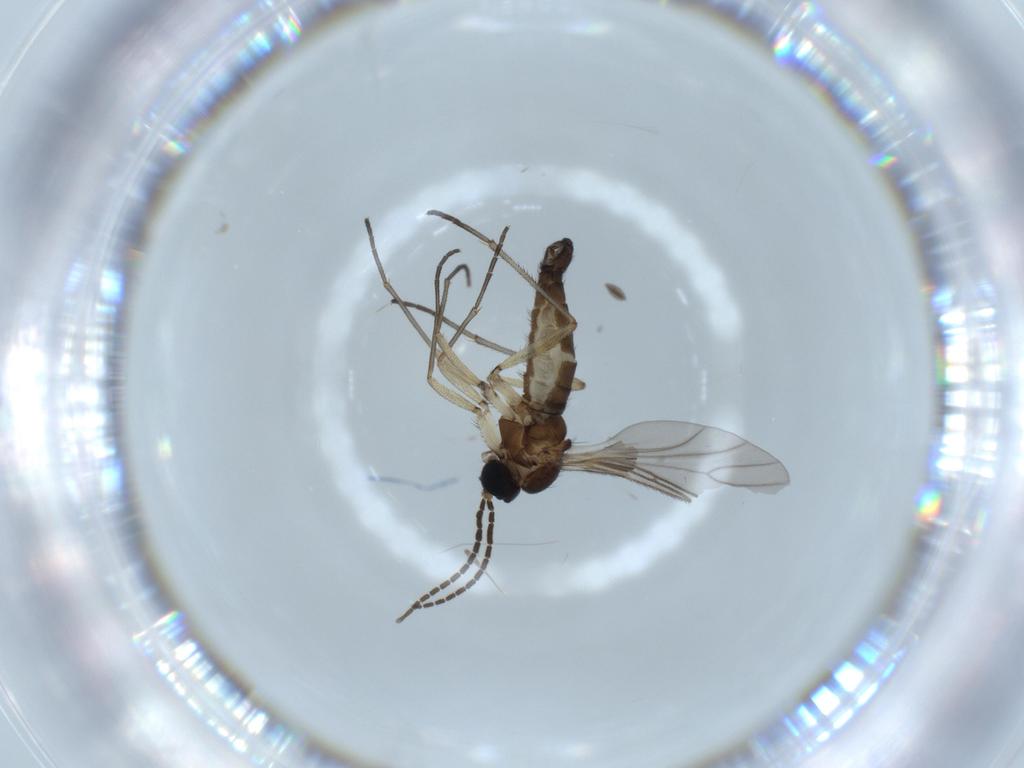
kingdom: Animalia
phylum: Arthropoda
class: Insecta
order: Diptera
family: Sciaridae
